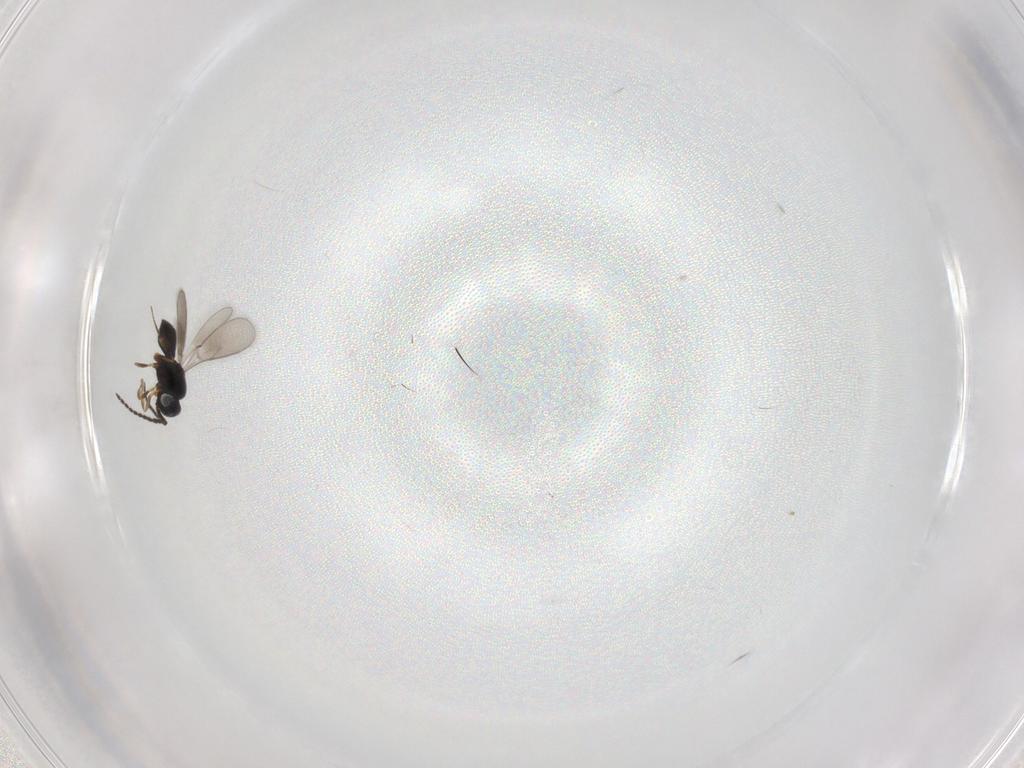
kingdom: Animalia
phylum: Arthropoda
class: Insecta
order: Hymenoptera
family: Scelionidae
